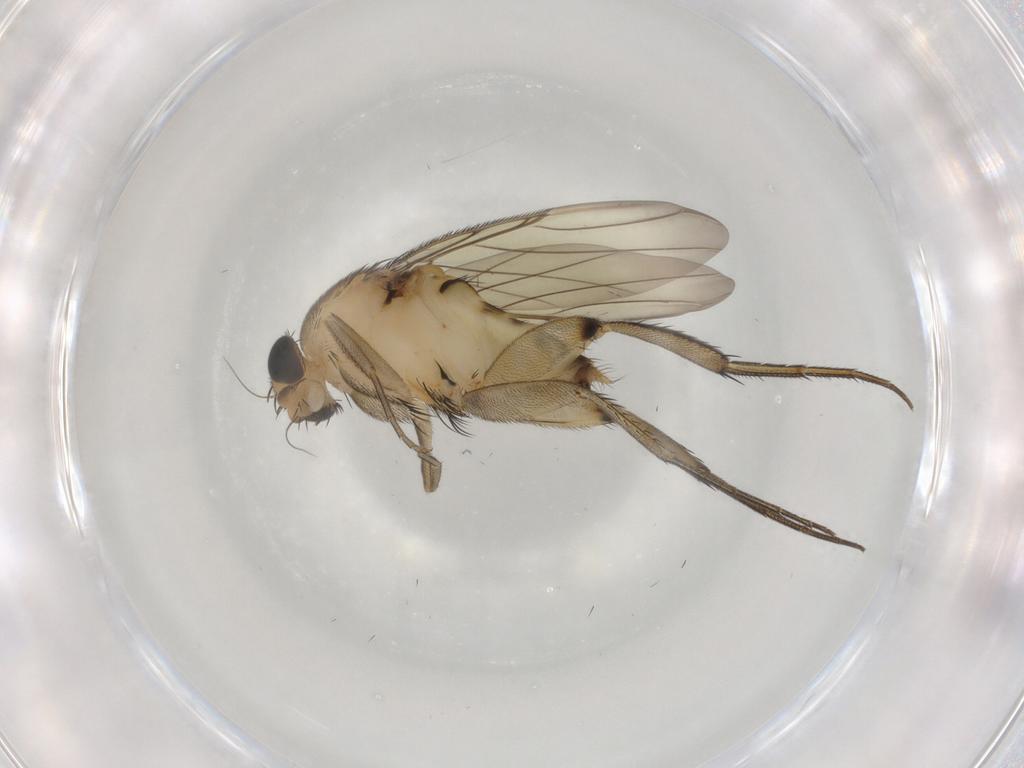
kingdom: Animalia
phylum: Arthropoda
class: Insecta
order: Diptera
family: Phoridae
